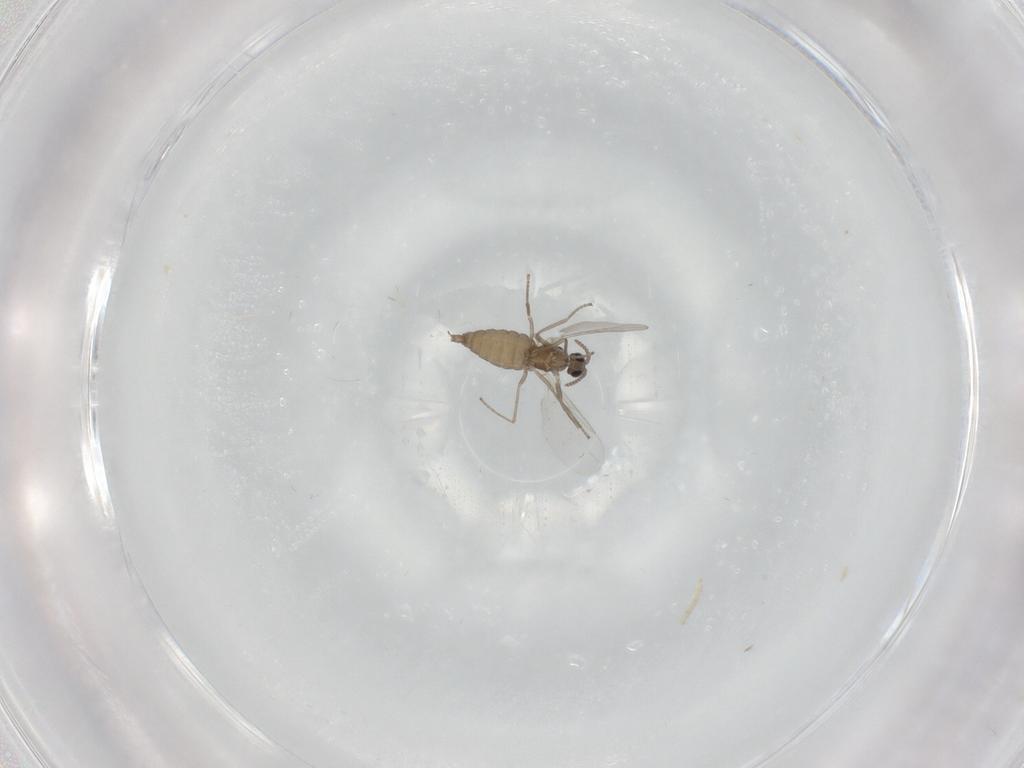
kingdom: Animalia
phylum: Arthropoda
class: Insecta
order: Diptera
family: Cecidomyiidae
